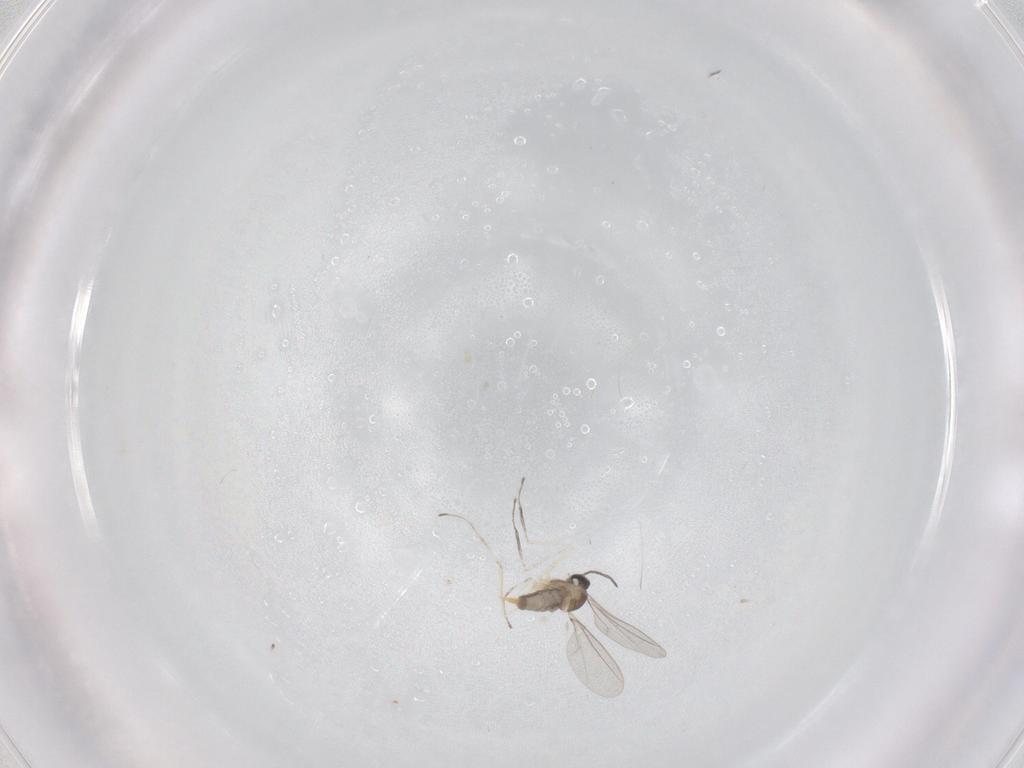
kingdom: Animalia
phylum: Arthropoda
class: Insecta
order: Diptera
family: Cecidomyiidae
